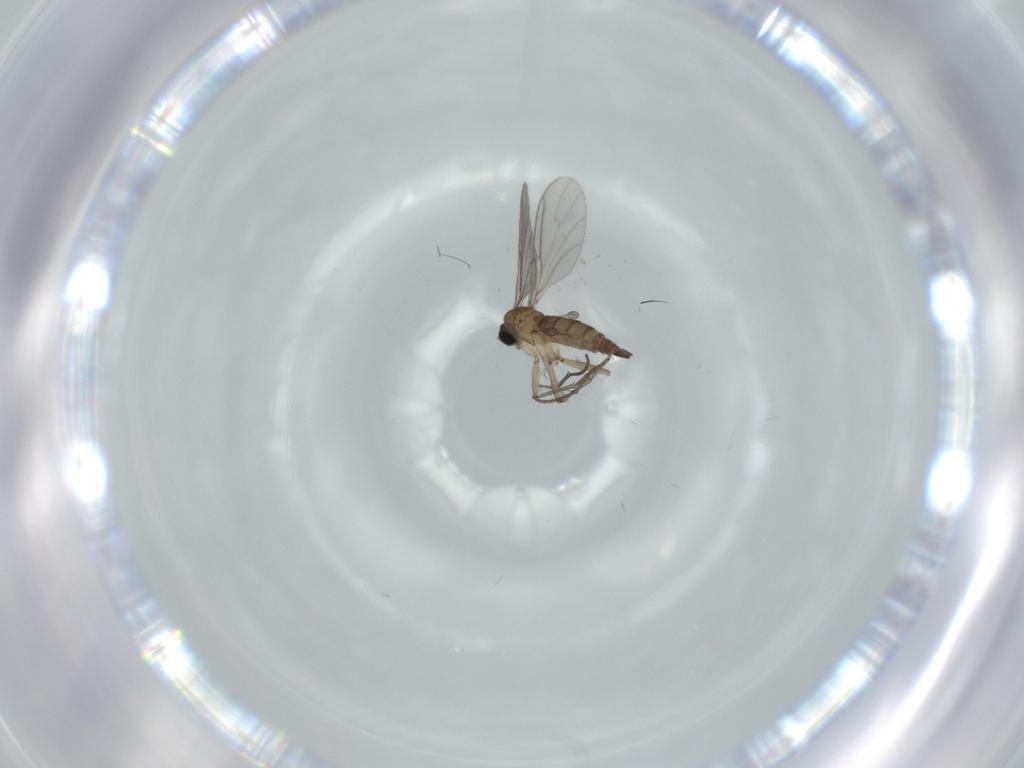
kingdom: Animalia
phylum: Arthropoda
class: Insecta
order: Diptera
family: Sciaridae
